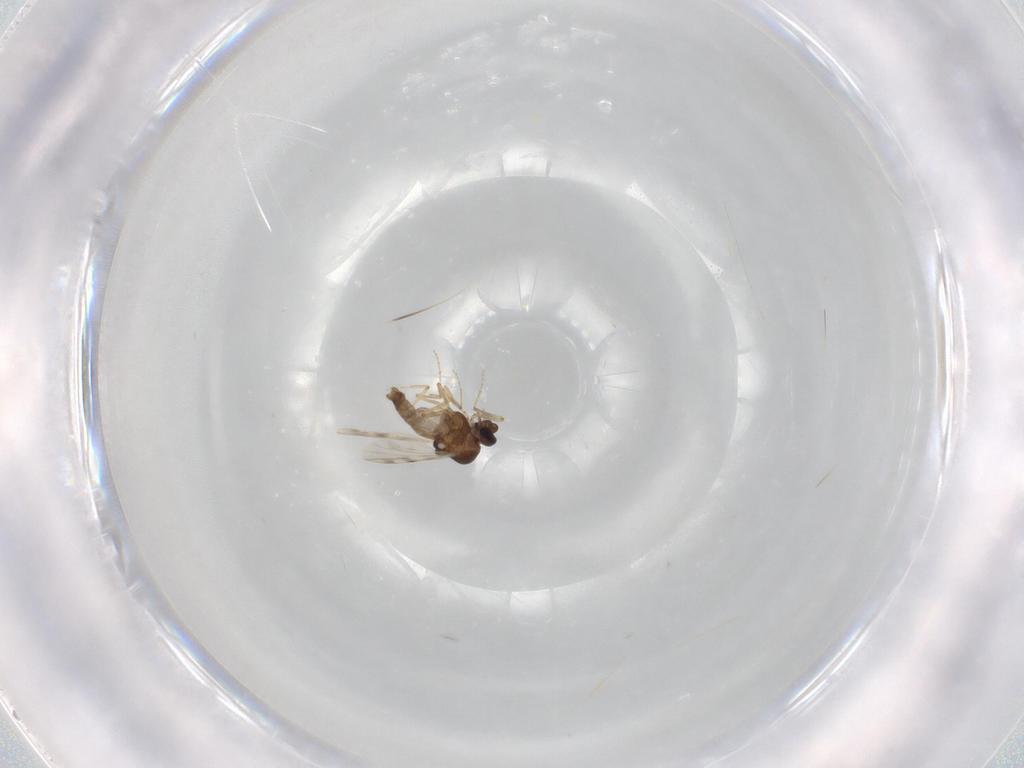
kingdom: Animalia
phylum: Arthropoda
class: Insecta
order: Diptera
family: Ceratopogonidae
